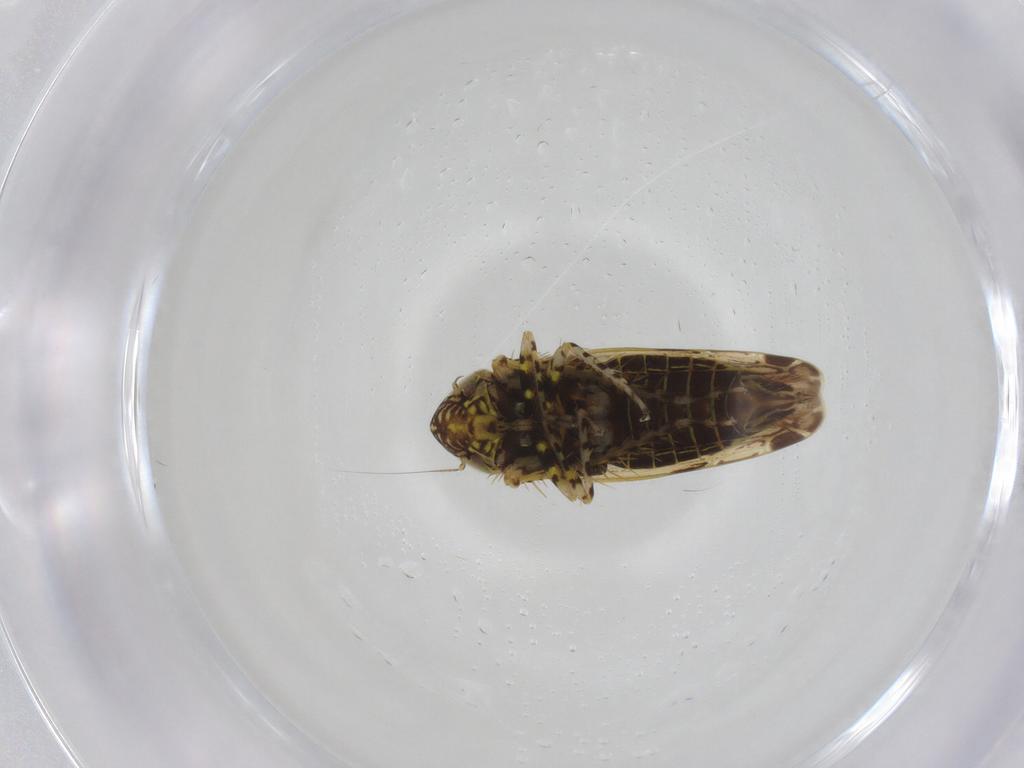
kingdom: Animalia
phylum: Arthropoda
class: Insecta
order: Hemiptera
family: Cicadellidae
